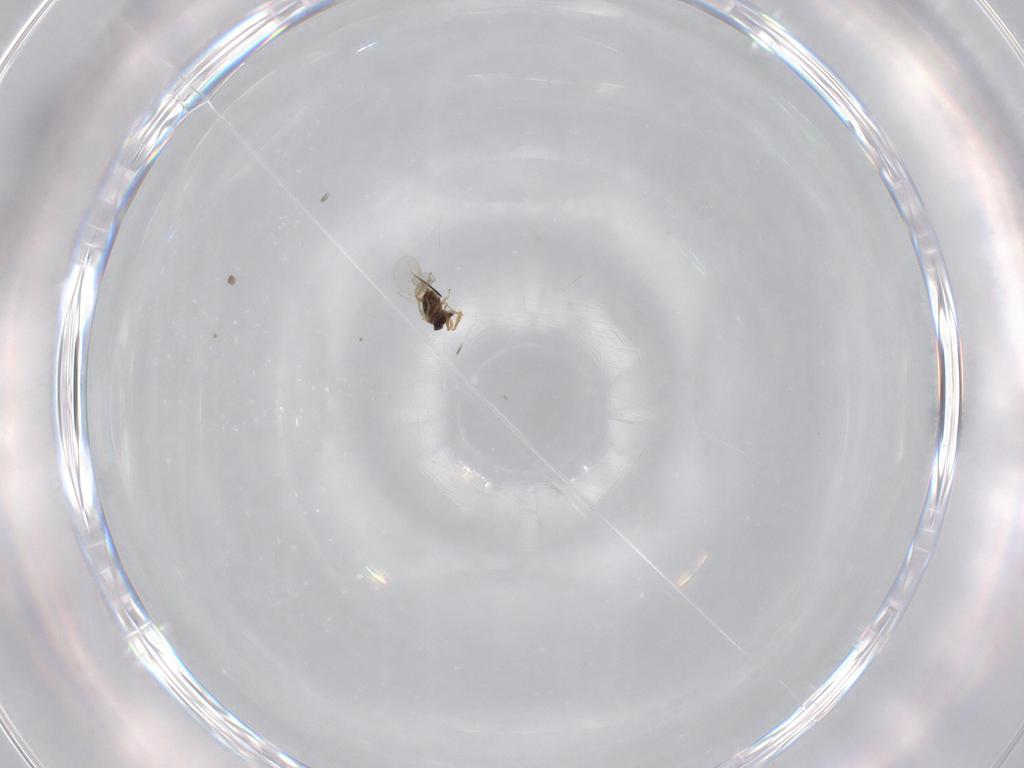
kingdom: Animalia
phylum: Arthropoda
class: Insecta
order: Hymenoptera
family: Encyrtidae
